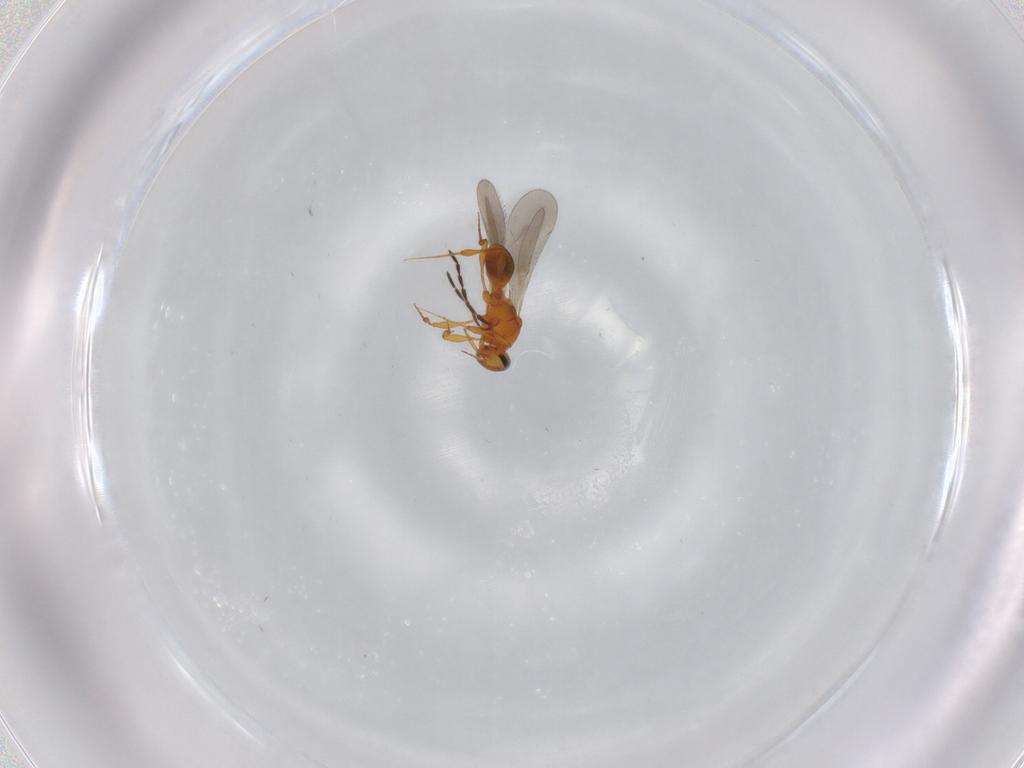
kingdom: Animalia
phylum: Arthropoda
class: Insecta
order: Hymenoptera
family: Platygastridae
